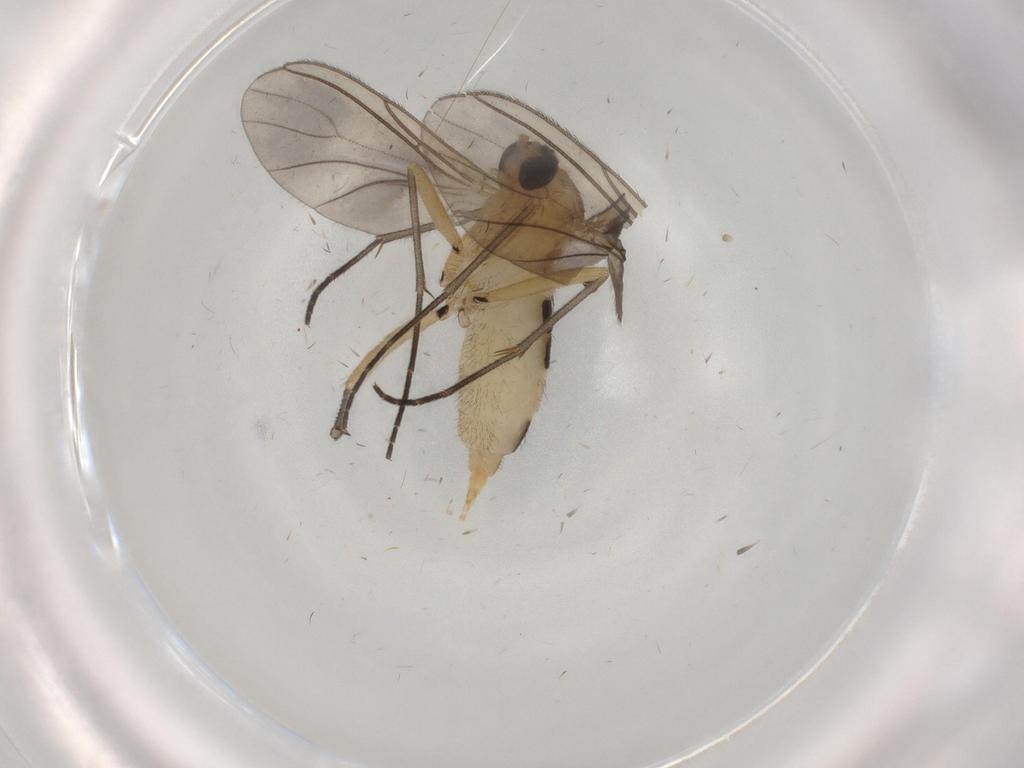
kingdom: Animalia
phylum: Arthropoda
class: Insecta
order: Diptera
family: Sciaridae
